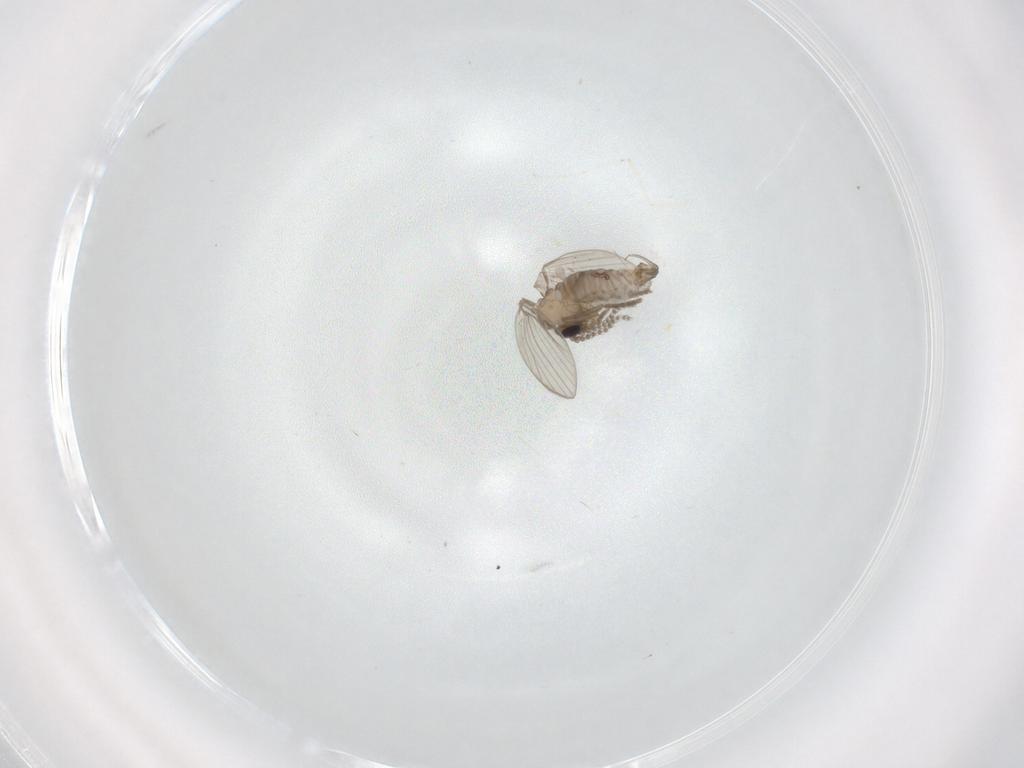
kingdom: Animalia
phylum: Arthropoda
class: Insecta
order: Diptera
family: Psychodidae
